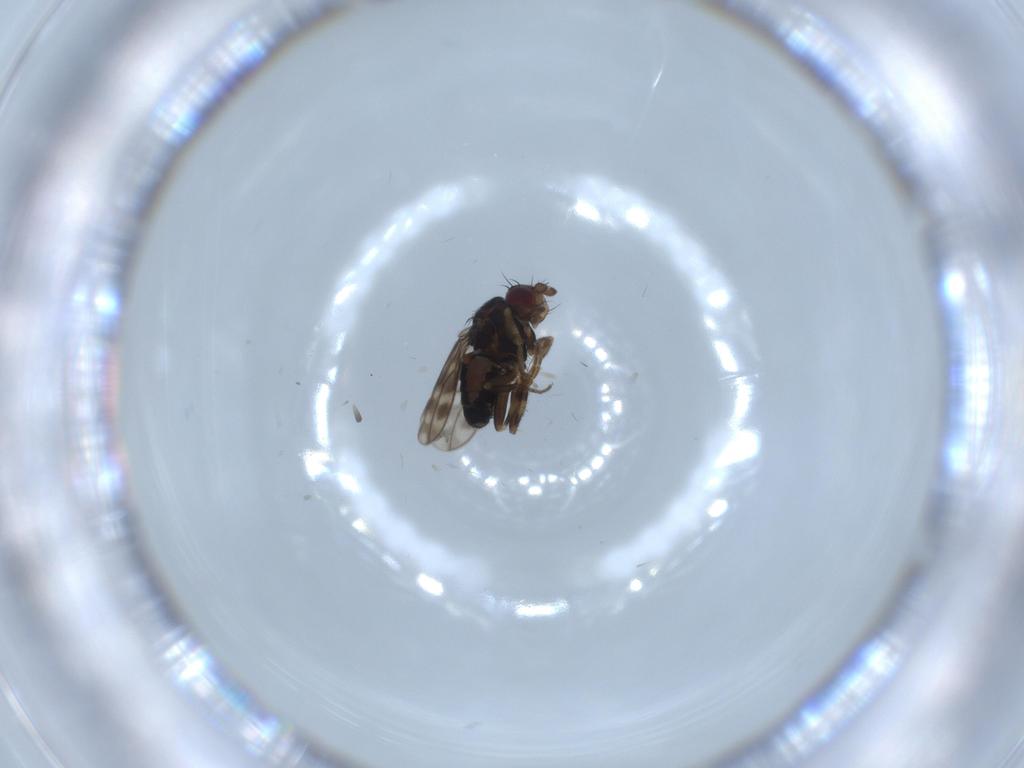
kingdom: Animalia
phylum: Arthropoda
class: Insecta
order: Diptera
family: Sphaeroceridae
